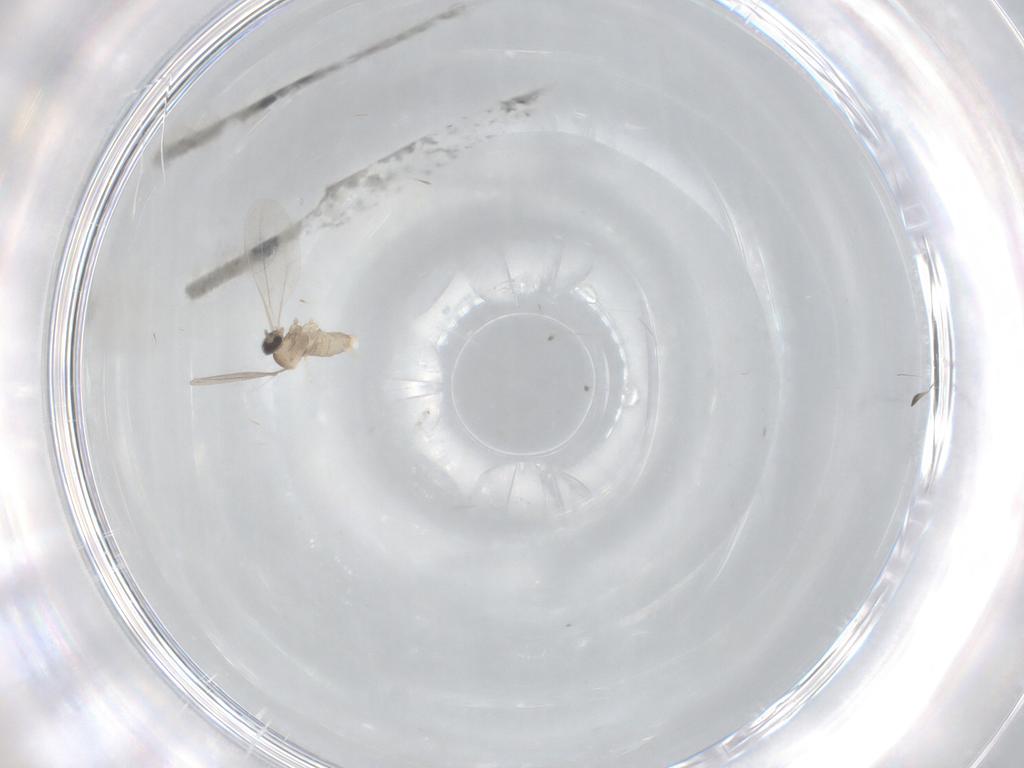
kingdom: Animalia
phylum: Arthropoda
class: Insecta
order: Diptera
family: Cecidomyiidae
